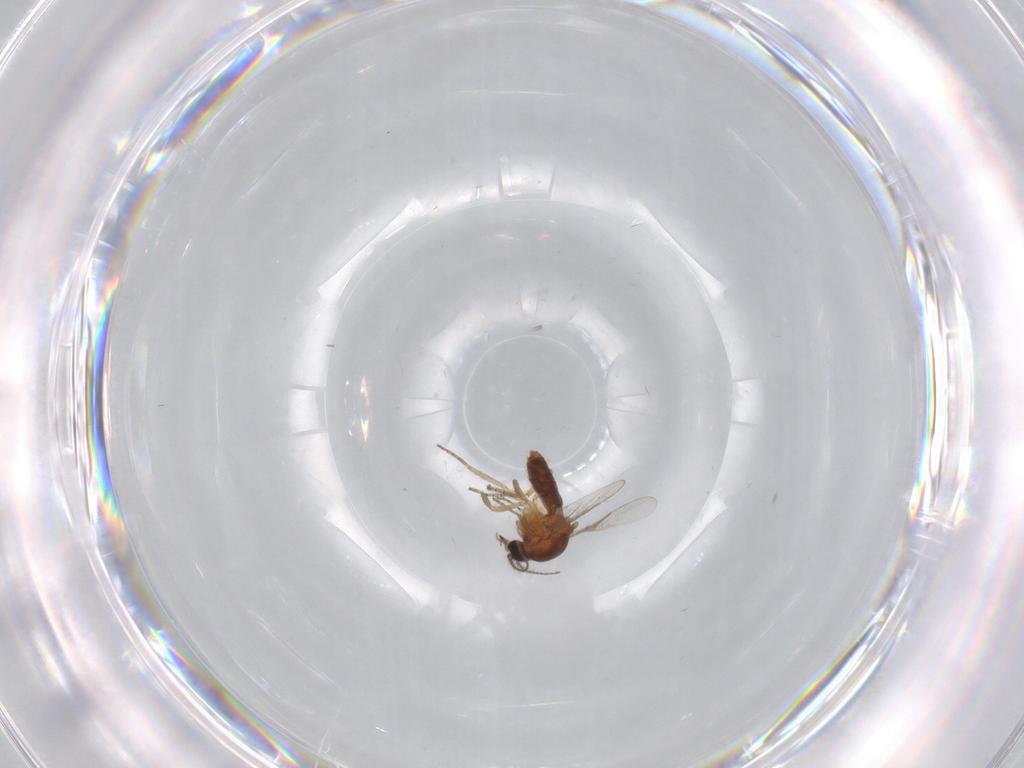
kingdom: Animalia
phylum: Arthropoda
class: Insecta
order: Diptera
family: Ceratopogonidae
